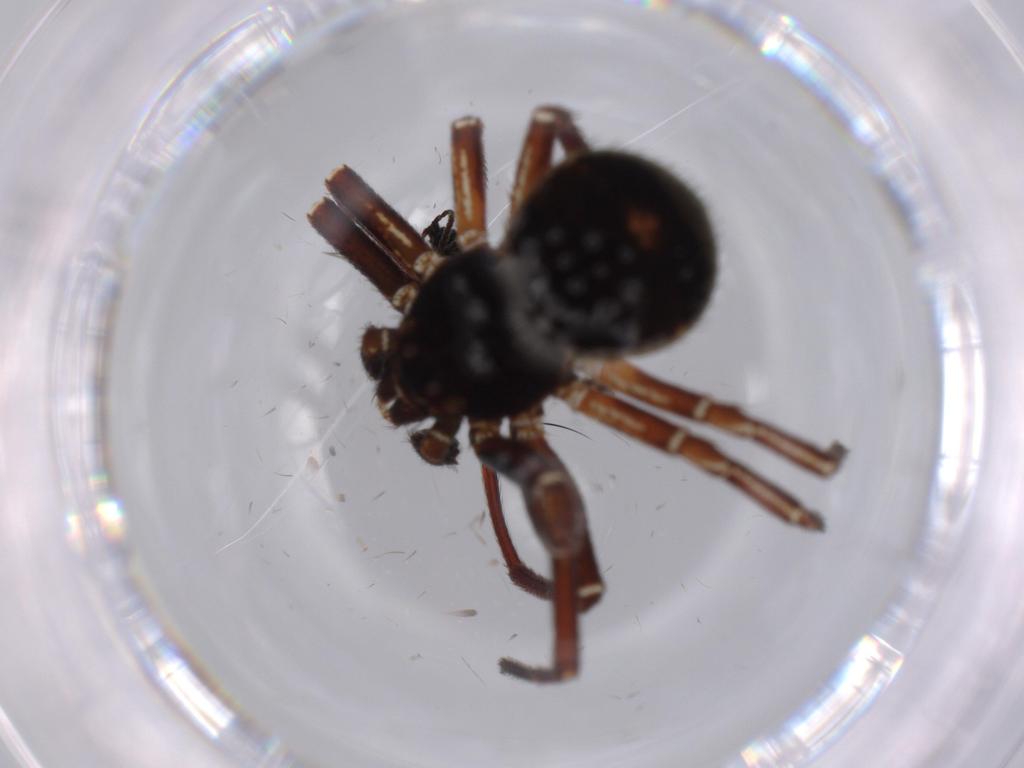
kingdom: Animalia
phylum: Arthropoda
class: Arachnida
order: Araneae
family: Thomisidae
